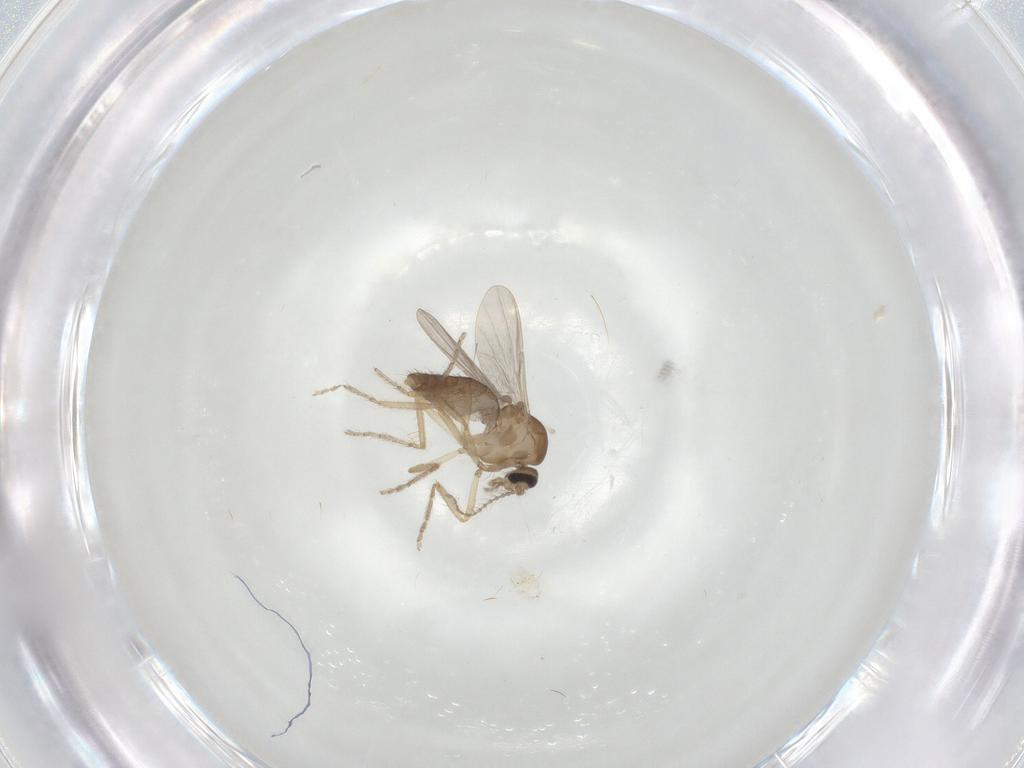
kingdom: Animalia
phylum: Arthropoda
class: Insecta
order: Diptera
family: Ceratopogonidae
